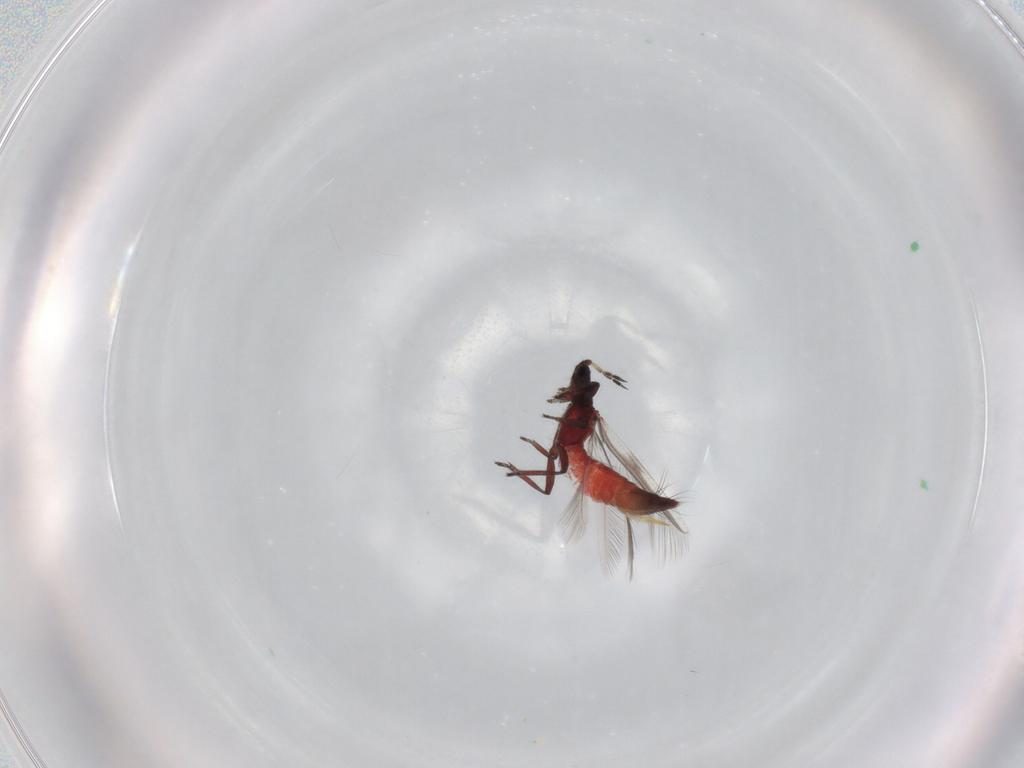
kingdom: Animalia
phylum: Arthropoda
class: Insecta
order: Thysanoptera
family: Aeolothripidae
